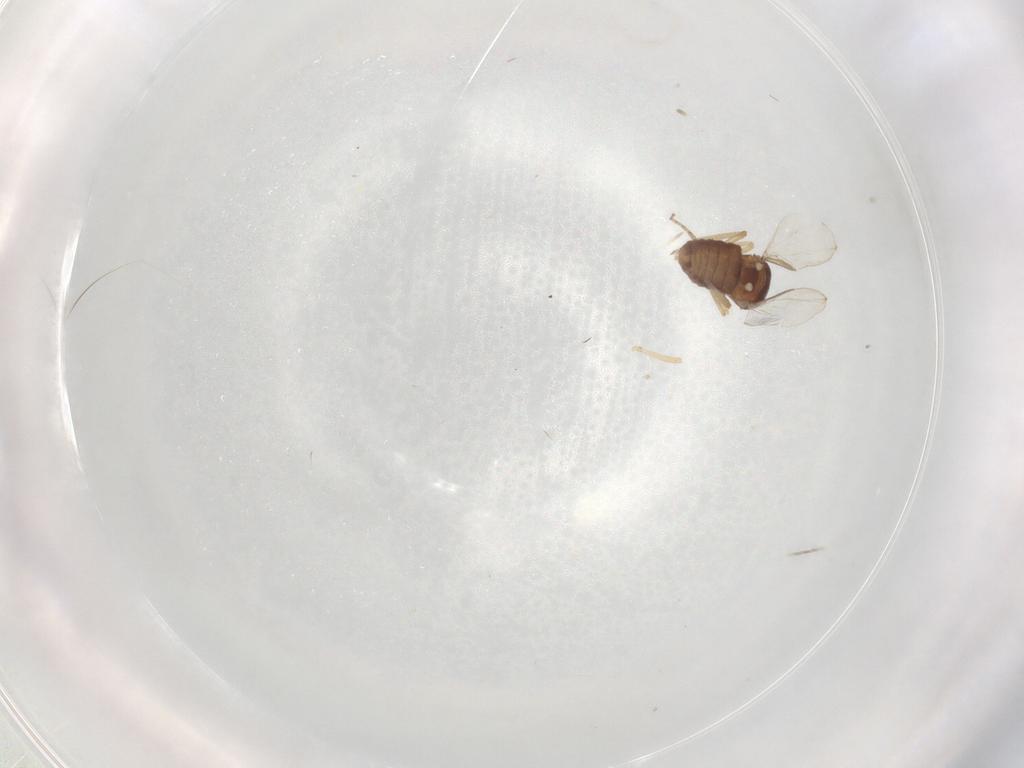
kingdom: Animalia
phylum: Arthropoda
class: Insecta
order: Diptera
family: Ceratopogonidae
